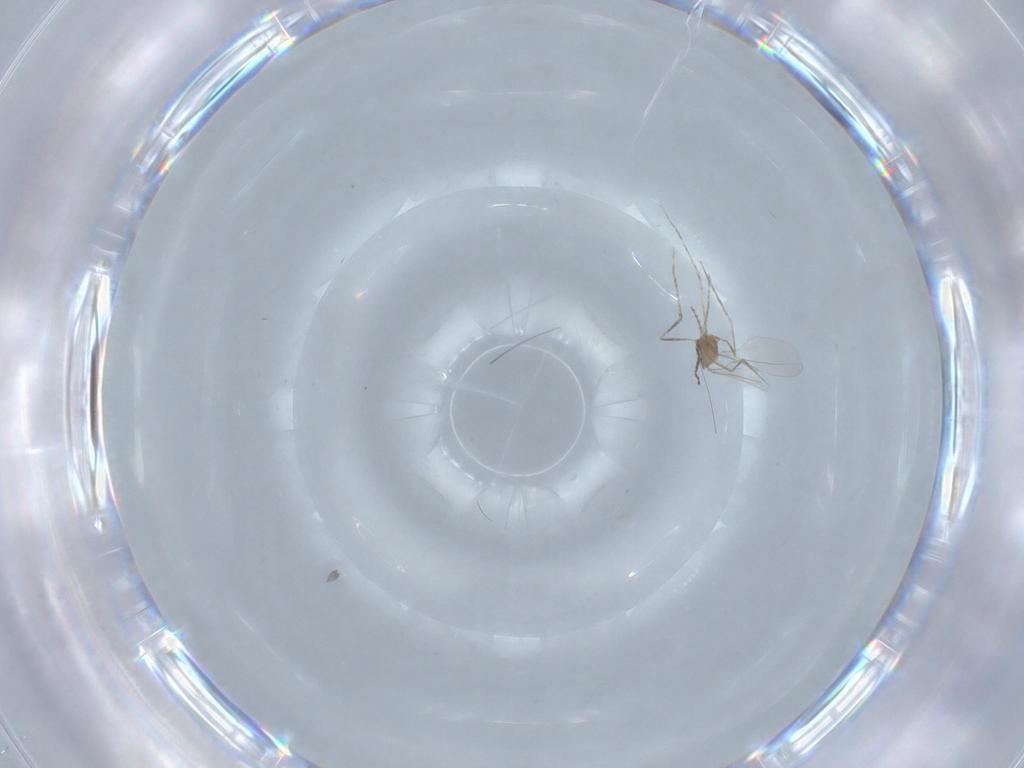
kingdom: Animalia
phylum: Arthropoda
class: Insecta
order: Diptera
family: Cecidomyiidae
